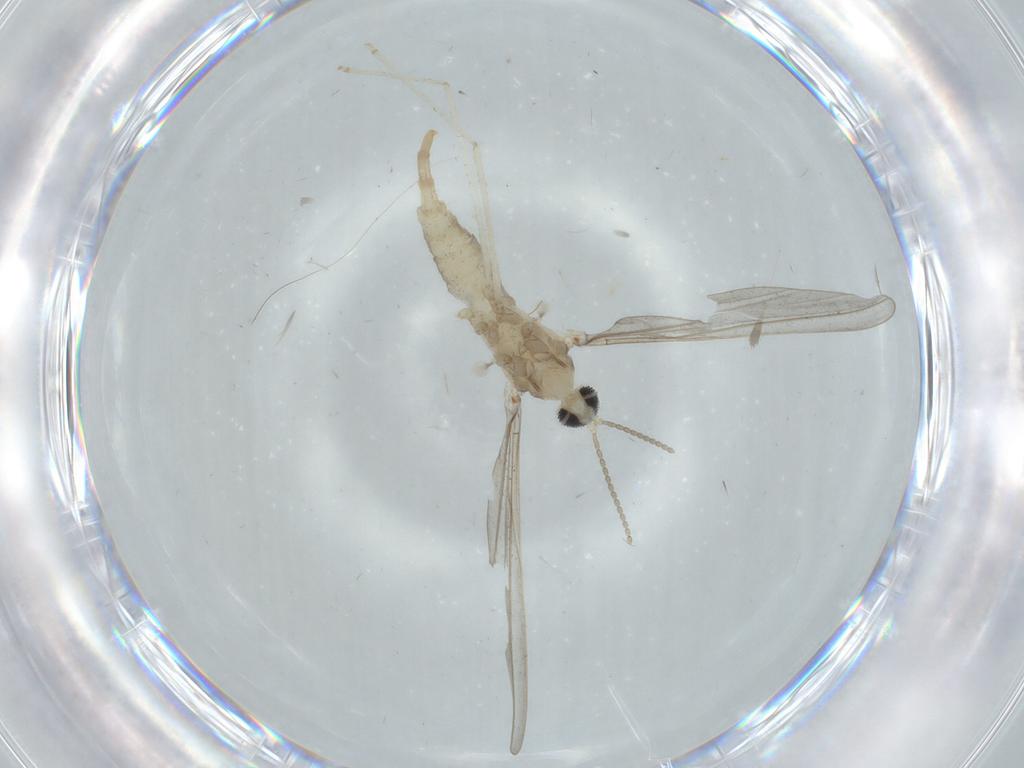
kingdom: Animalia
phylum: Arthropoda
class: Insecta
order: Diptera
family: Cecidomyiidae
